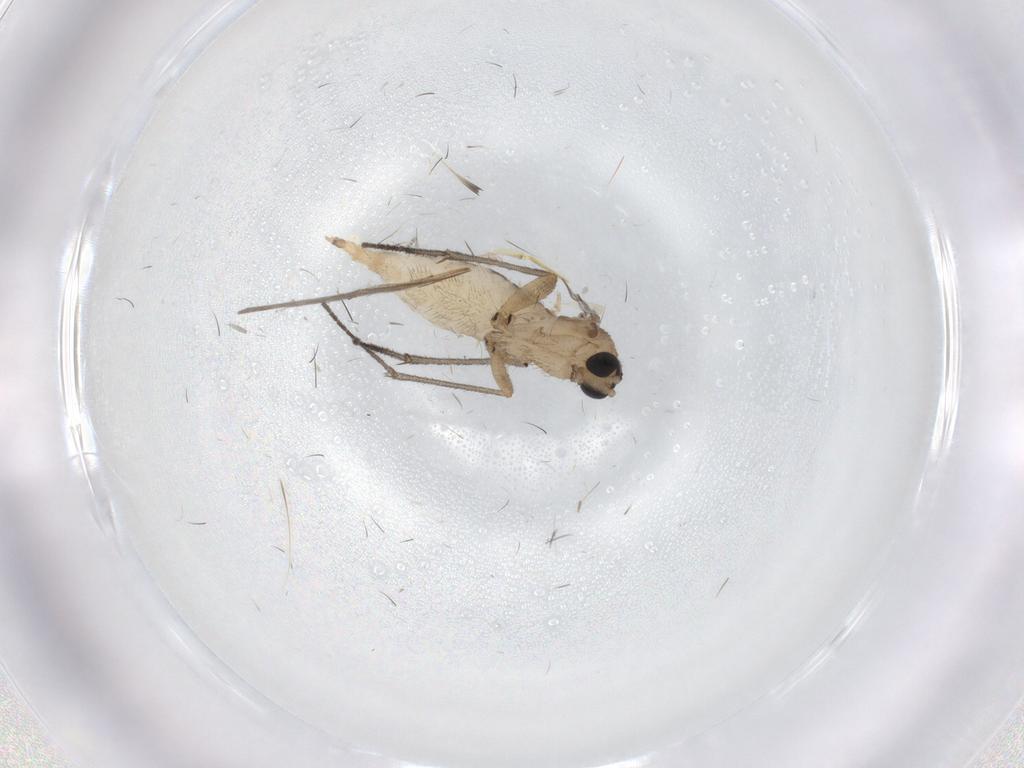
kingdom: Animalia
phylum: Arthropoda
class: Insecta
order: Diptera
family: Sciaridae
